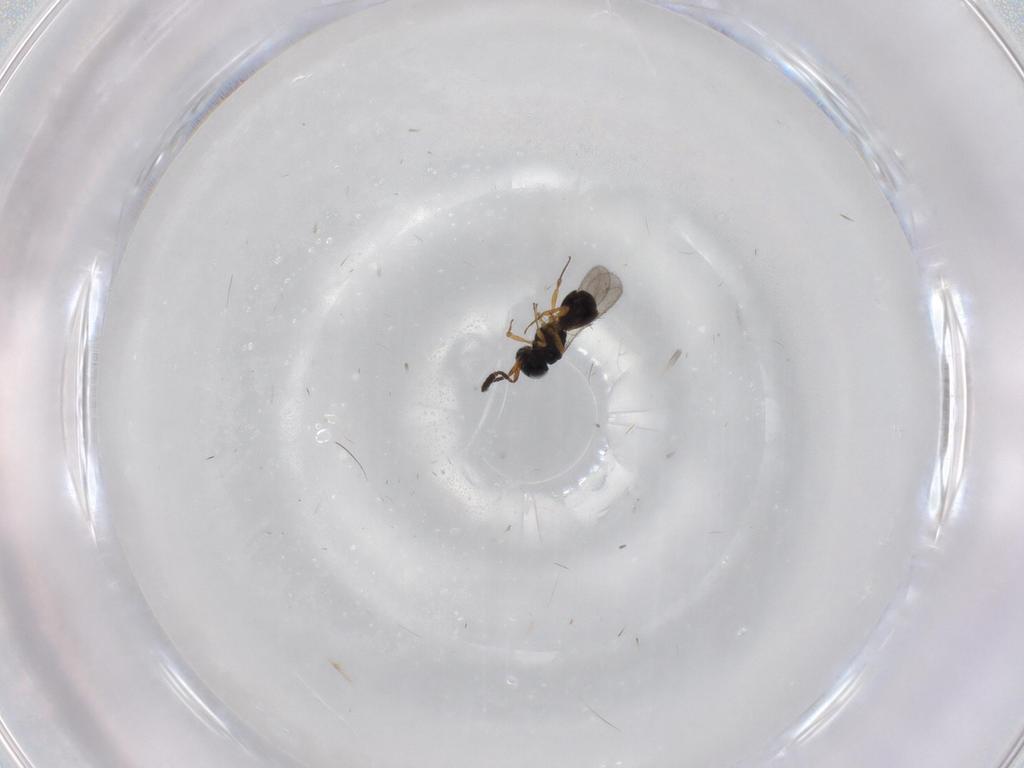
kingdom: Animalia
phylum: Arthropoda
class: Insecta
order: Hymenoptera
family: Scelionidae
